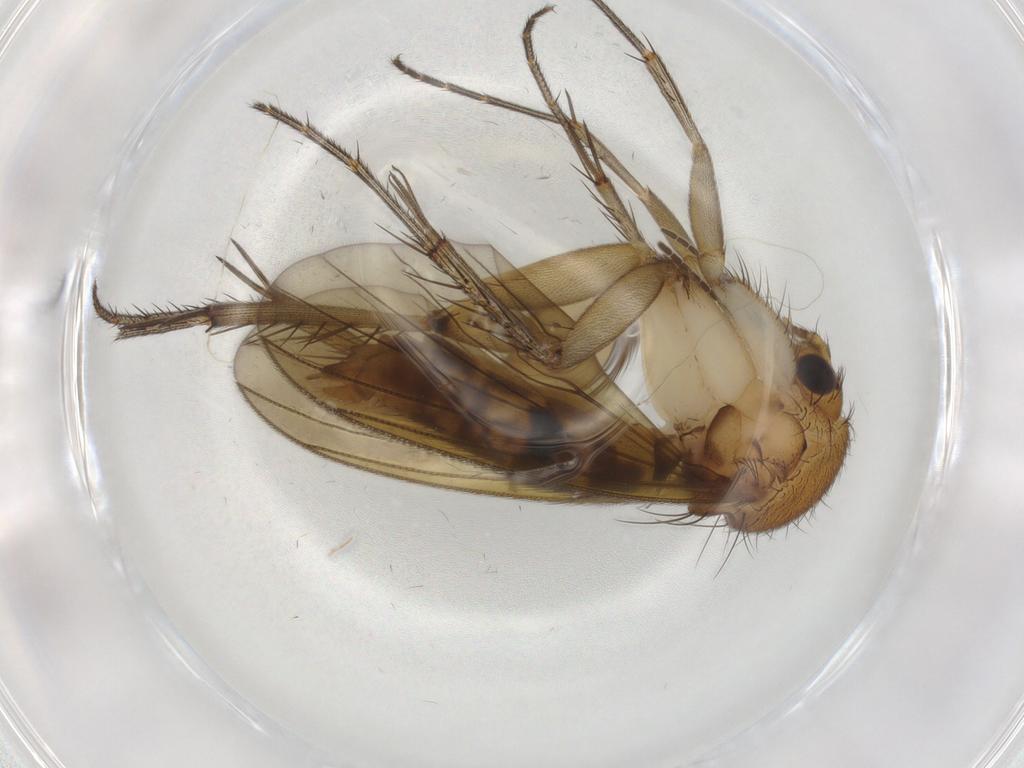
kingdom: Animalia
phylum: Arthropoda
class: Insecta
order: Diptera
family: Mycetophilidae
